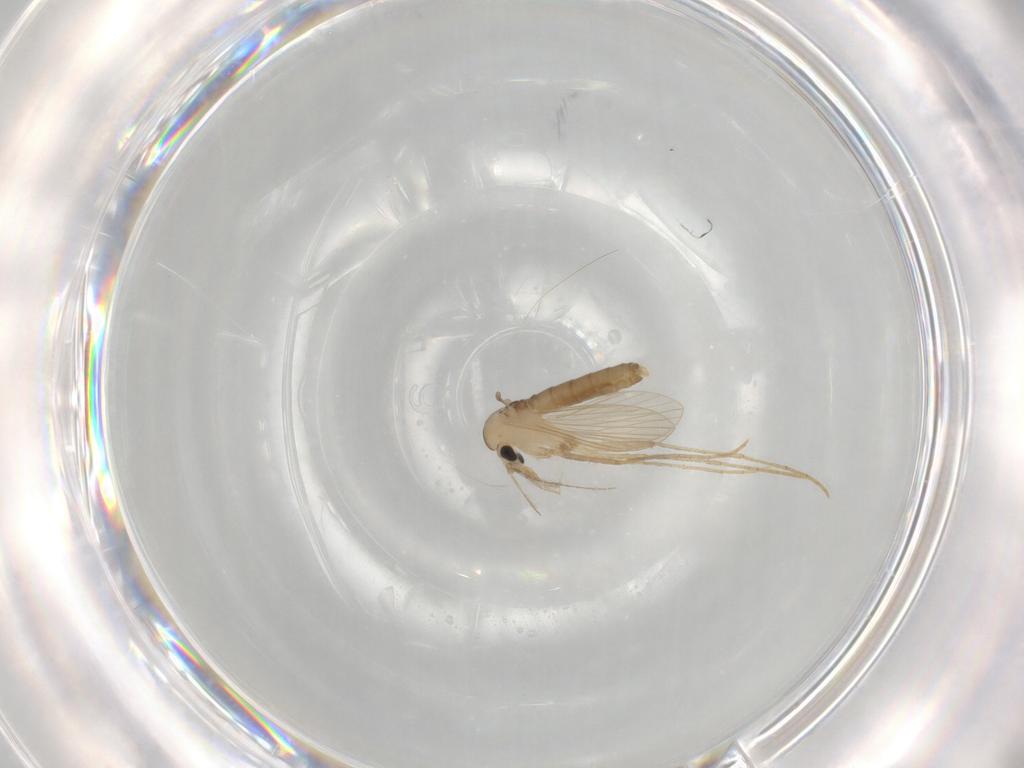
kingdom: Animalia
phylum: Arthropoda
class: Insecta
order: Diptera
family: Psychodidae
